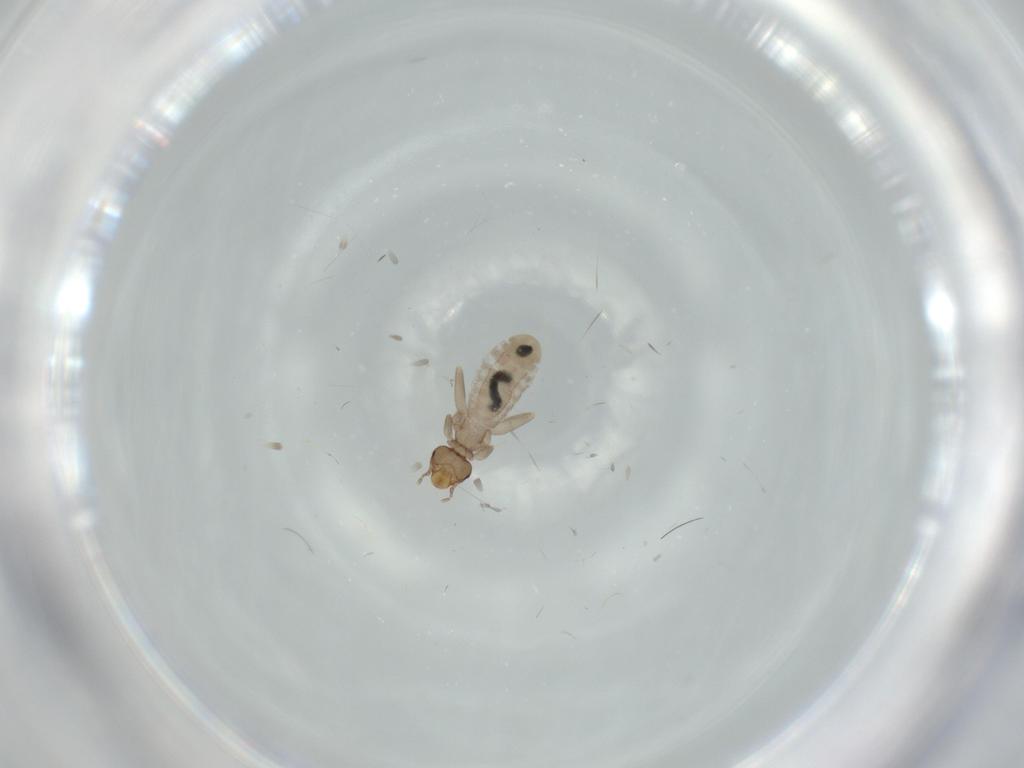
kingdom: Animalia
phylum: Arthropoda
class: Insecta
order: Psocodea
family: Liposcelididae
